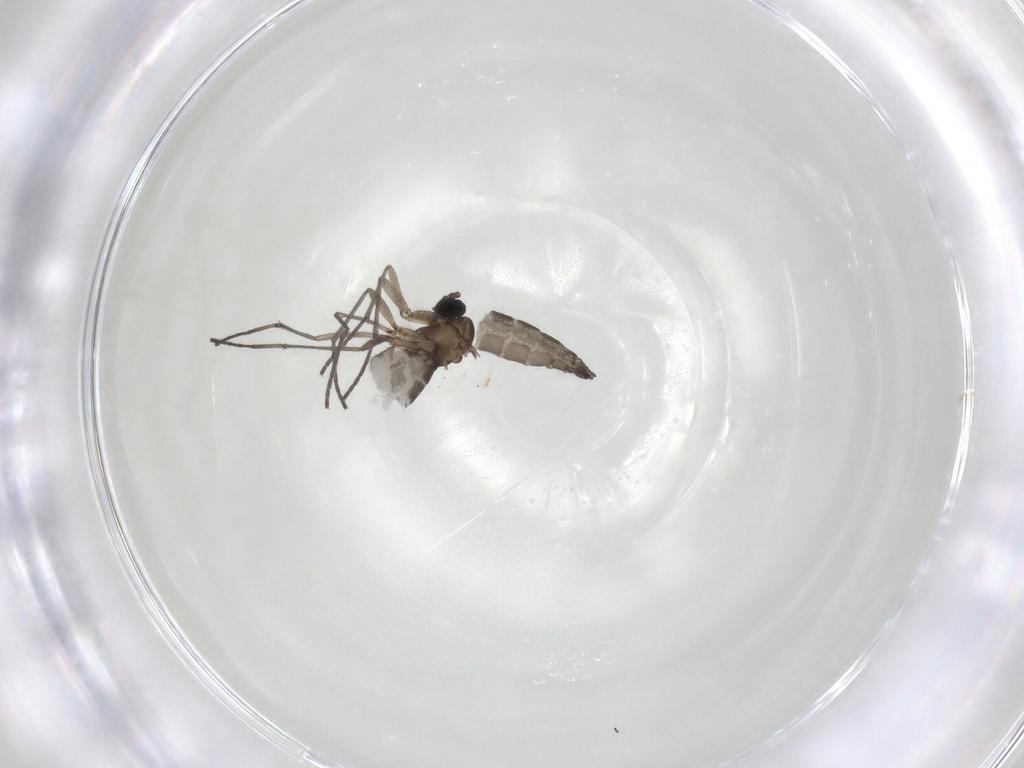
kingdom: Animalia
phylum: Arthropoda
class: Insecta
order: Diptera
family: Sciaridae
